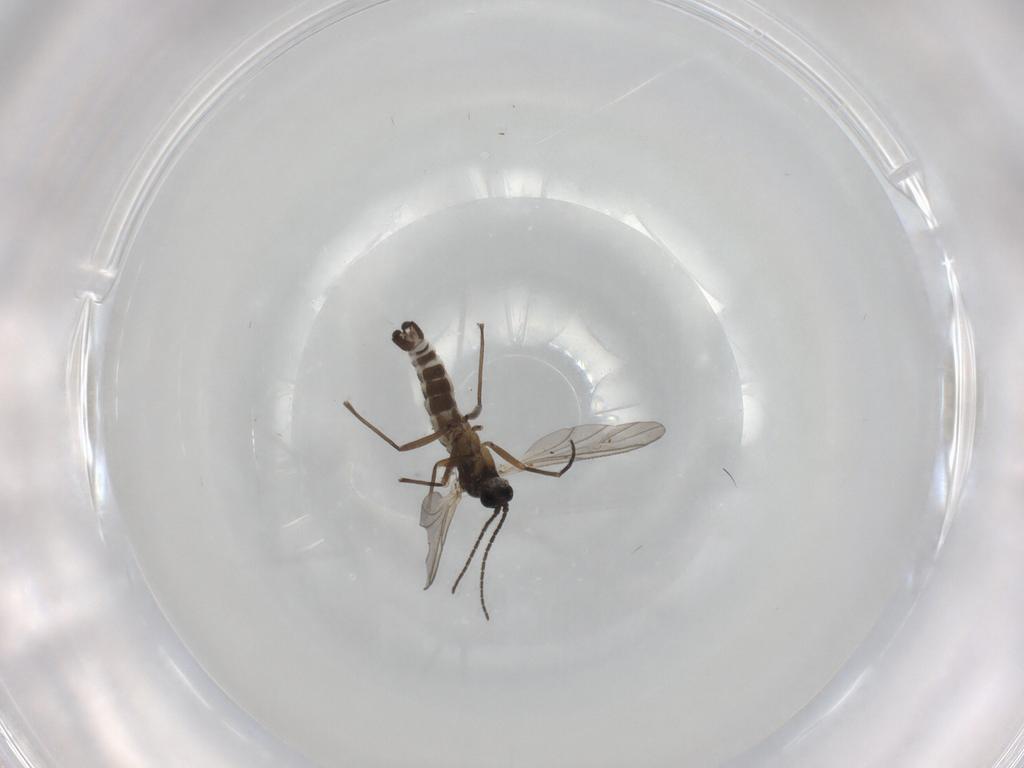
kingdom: Animalia
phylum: Arthropoda
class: Insecta
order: Diptera
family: Sciaridae
